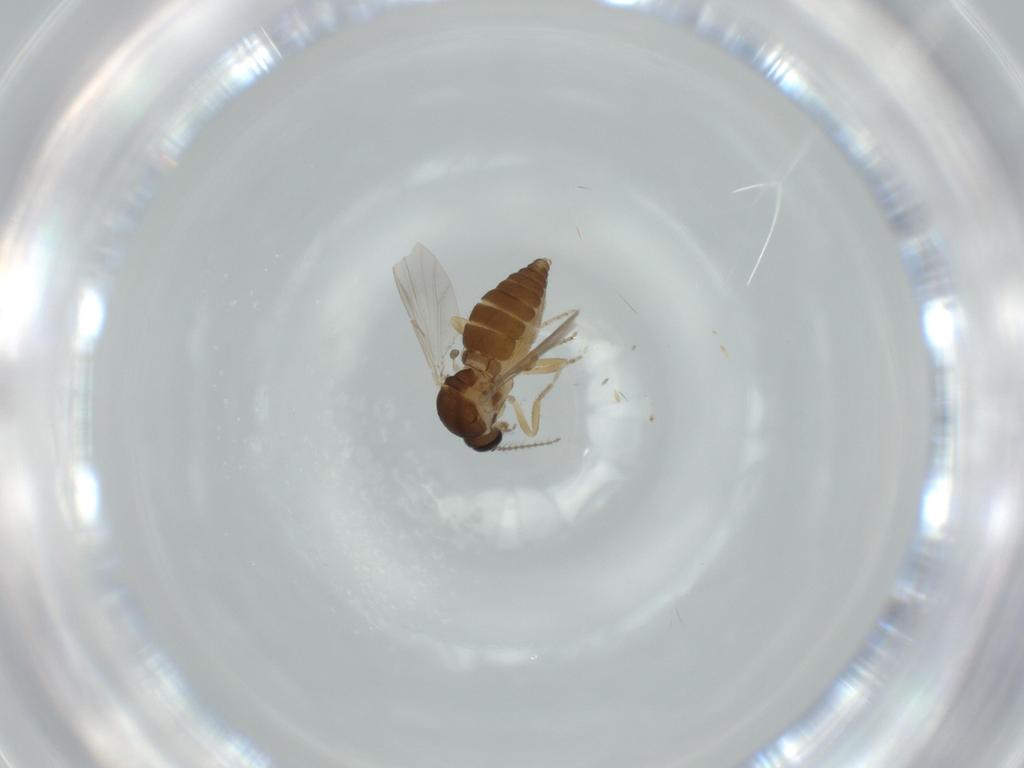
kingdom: Animalia
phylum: Arthropoda
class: Insecta
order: Diptera
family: Ceratopogonidae
